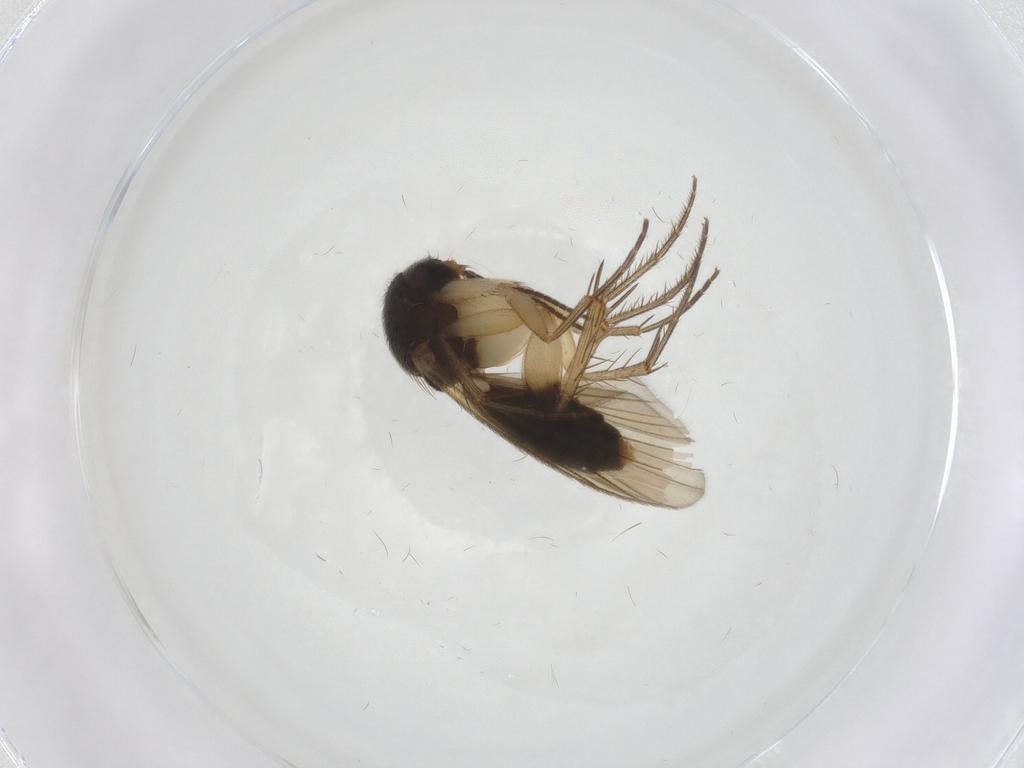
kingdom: Animalia
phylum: Arthropoda
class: Insecta
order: Diptera
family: Mycetophilidae
